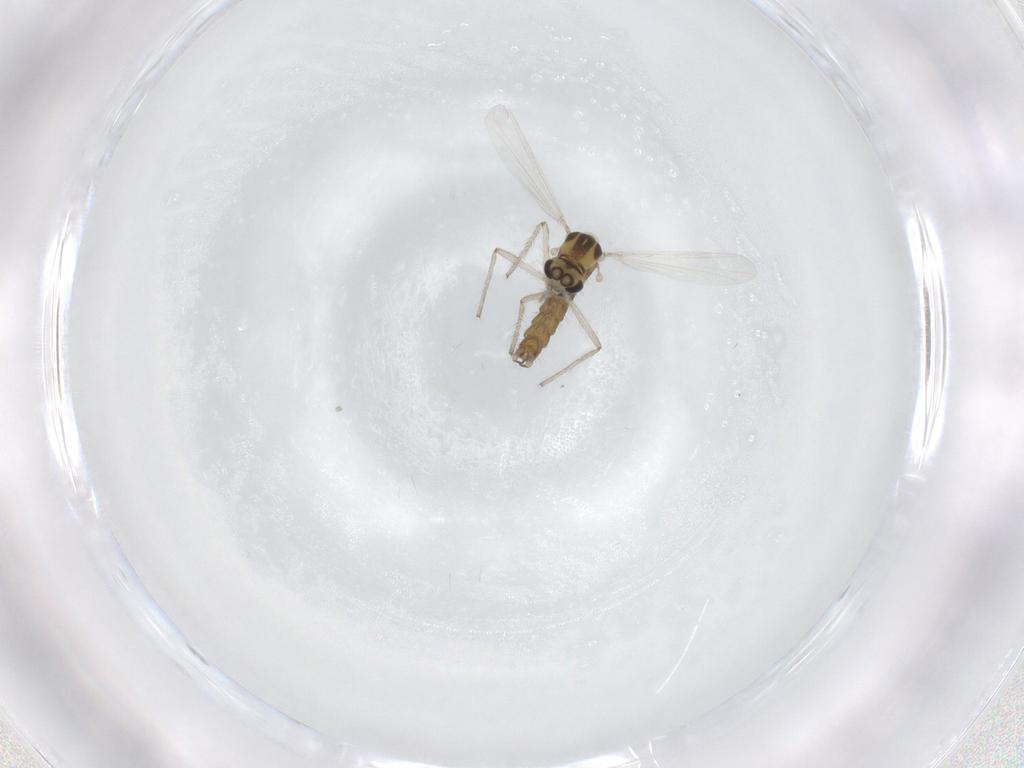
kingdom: Animalia
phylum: Arthropoda
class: Insecta
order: Diptera
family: Chironomidae
